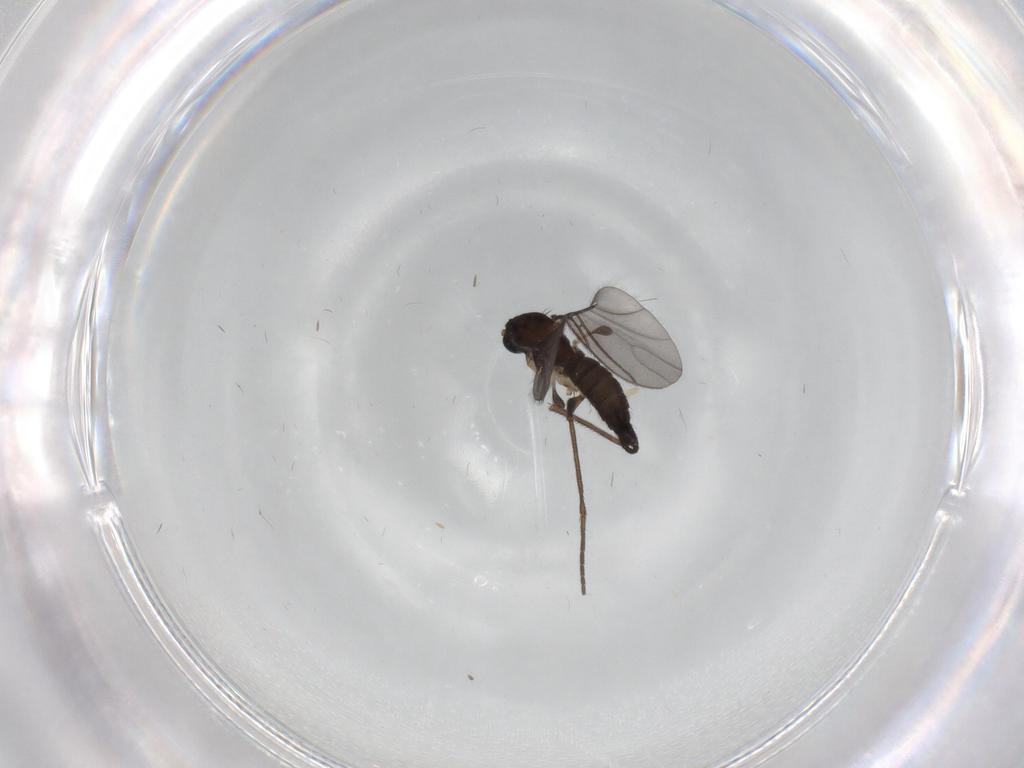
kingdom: Animalia
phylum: Arthropoda
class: Insecta
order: Diptera
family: Sciaridae
